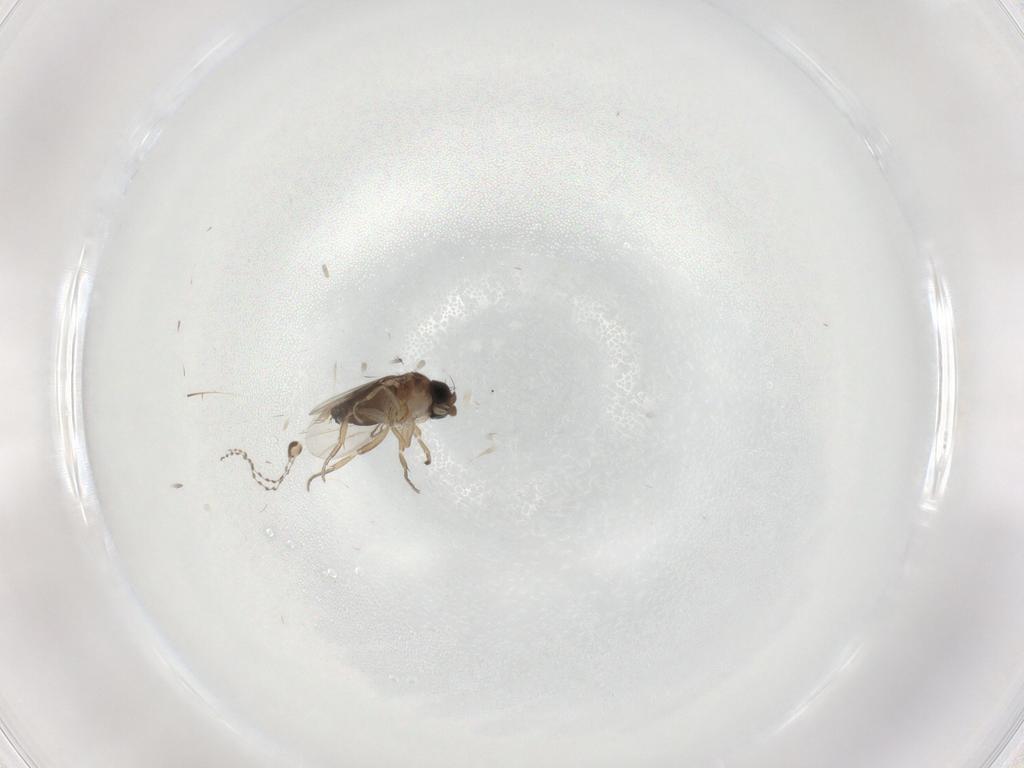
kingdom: Animalia
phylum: Arthropoda
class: Insecta
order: Diptera
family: Cecidomyiidae
